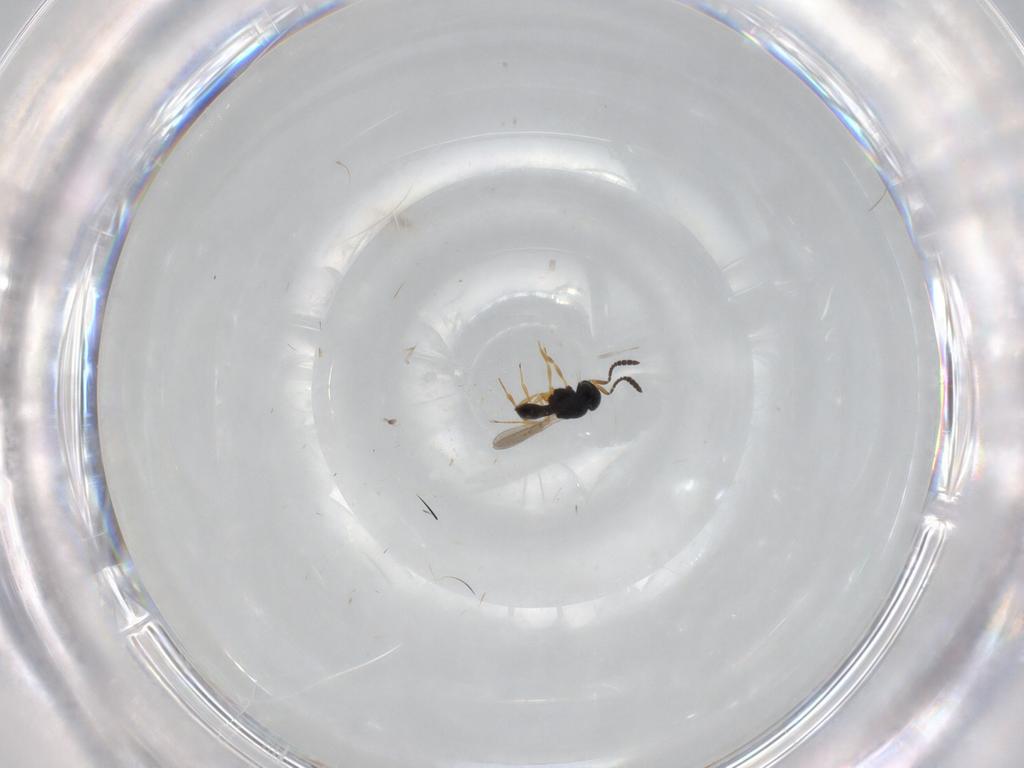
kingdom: Animalia
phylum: Arthropoda
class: Insecta
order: Hymenoptera
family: Scelionidae
